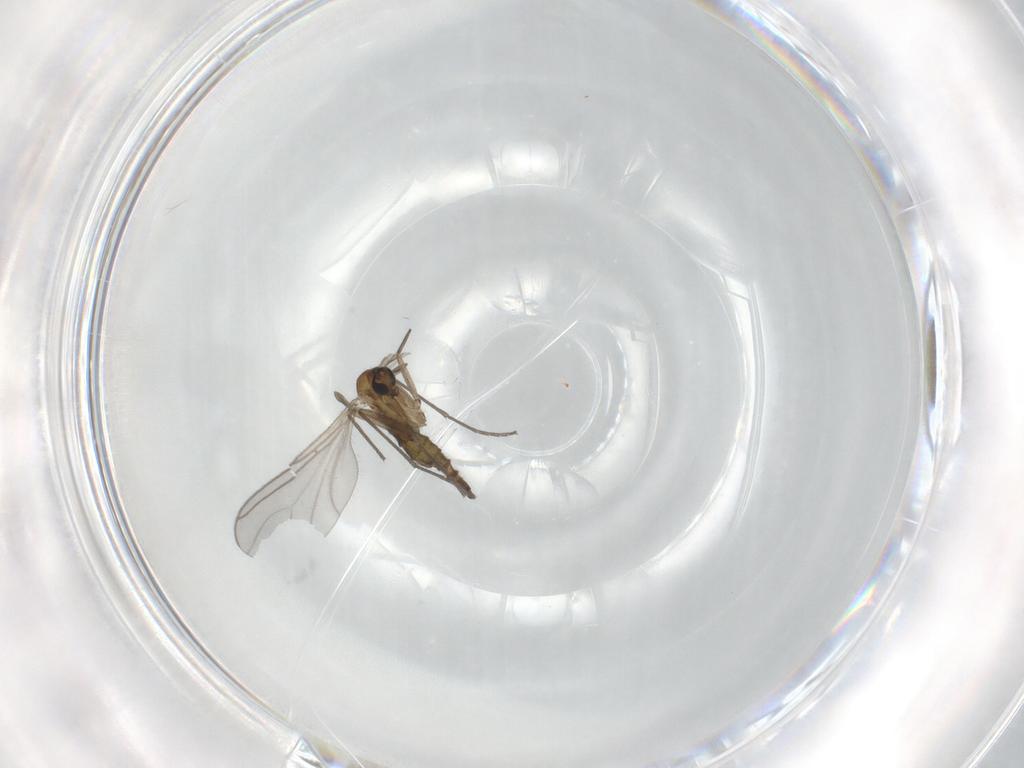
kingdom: Animalia
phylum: Arthropoda
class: Insecta
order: Diptera
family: Sciaridae
